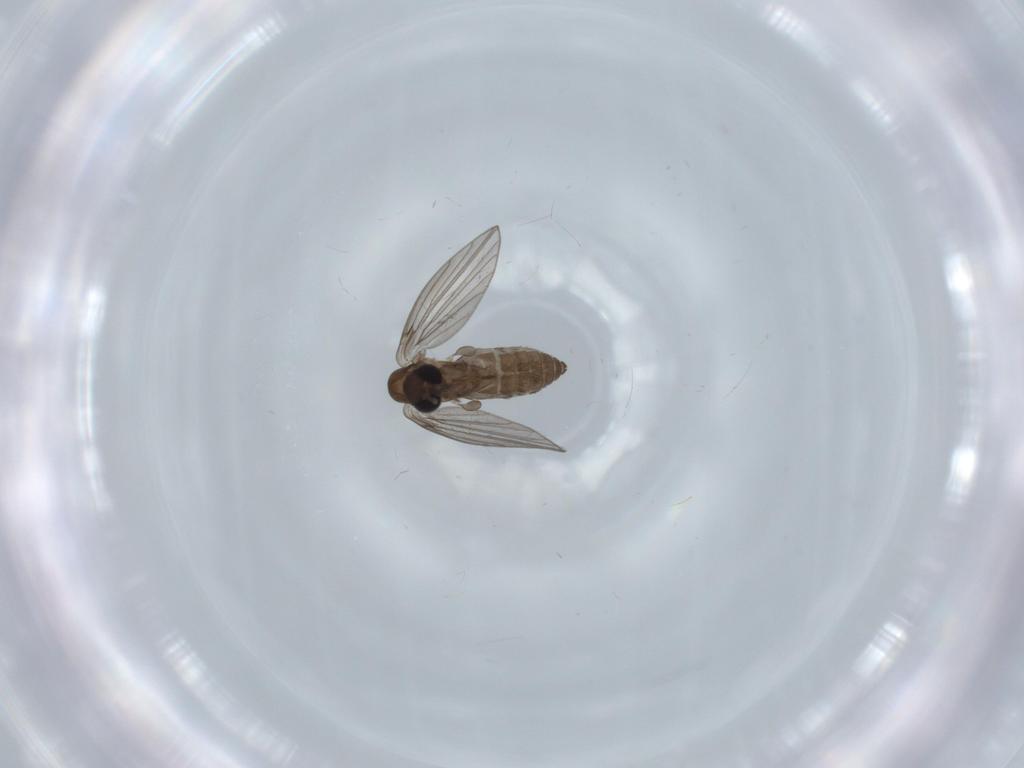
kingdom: Animalia
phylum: Arthropoda
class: Insecta
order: Diptera
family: Psychodidae
